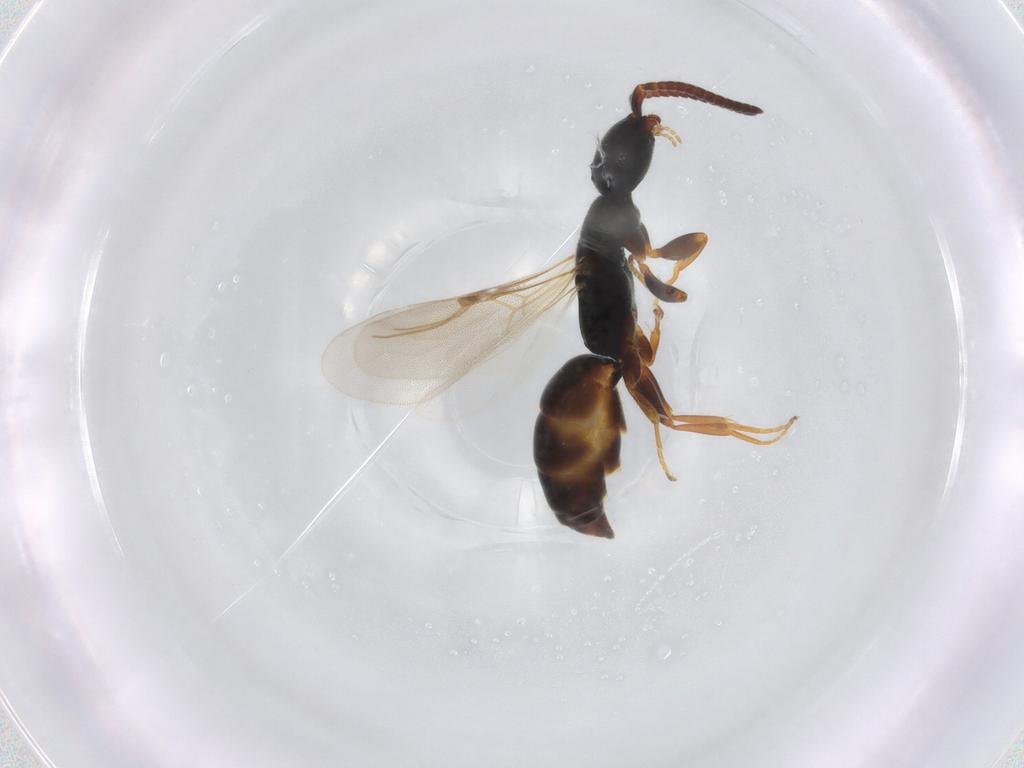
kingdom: Animalia
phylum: Arthropoda
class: Insecta
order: Hymenoptera
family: Bethylidae
